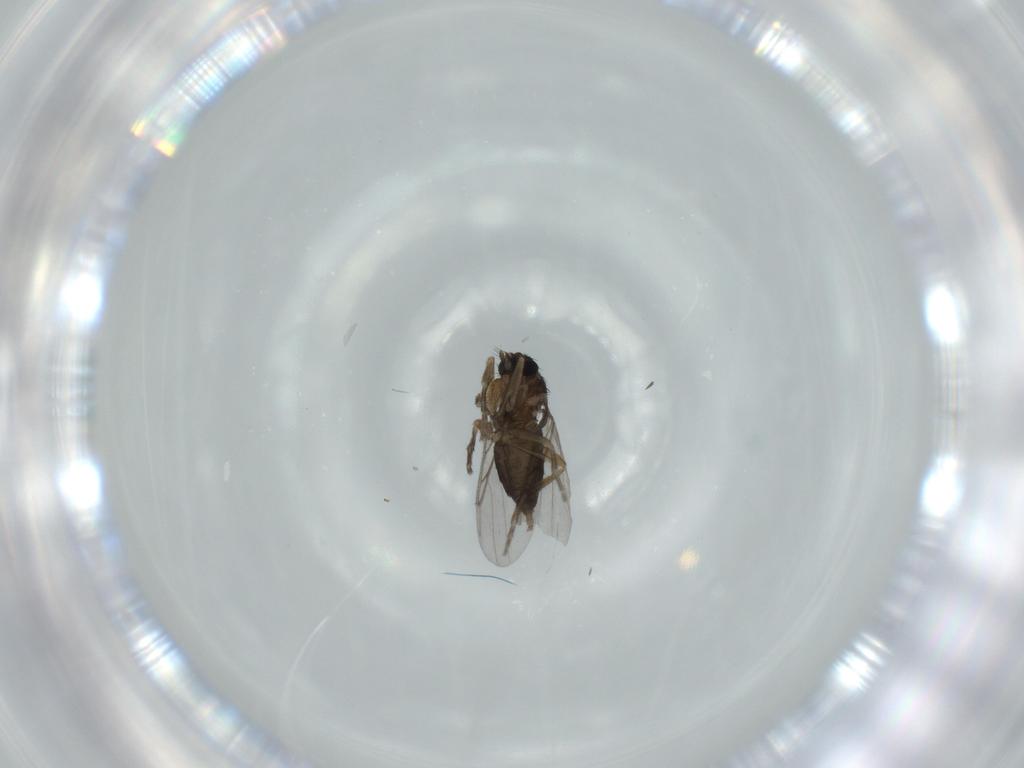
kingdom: Animalia
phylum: Arthropoda
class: Insecta
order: Diptera
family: Phoridae
